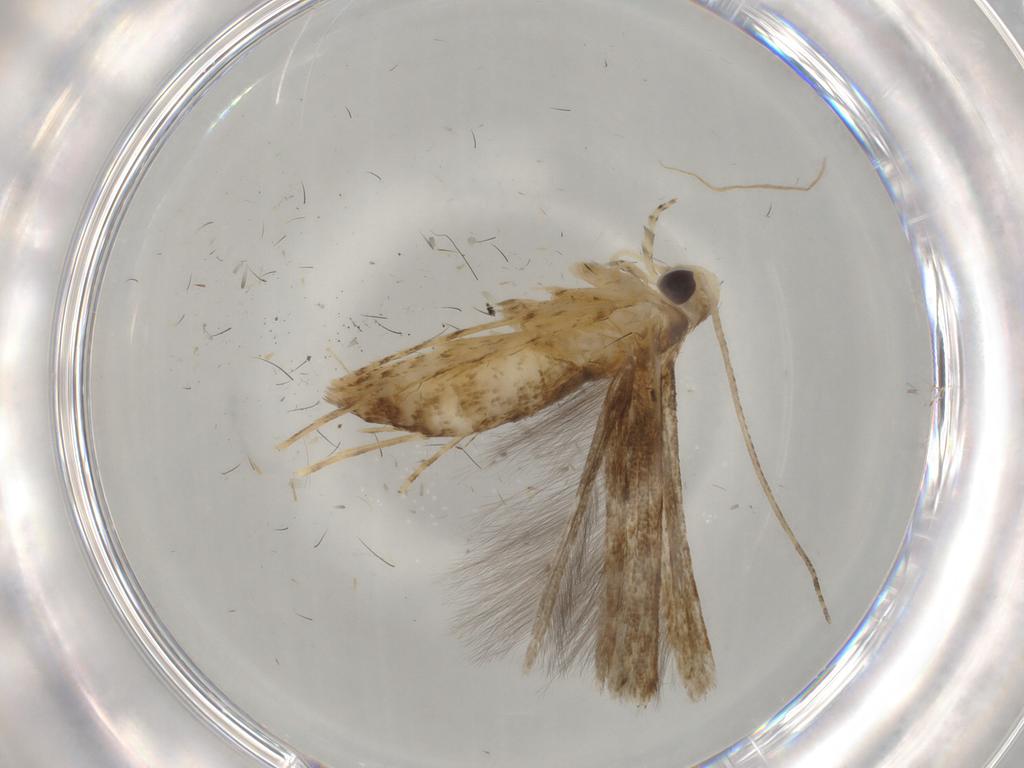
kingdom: Animalia
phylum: Arthropoda
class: Insecta
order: Lepidoptera
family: Batrachedridae
